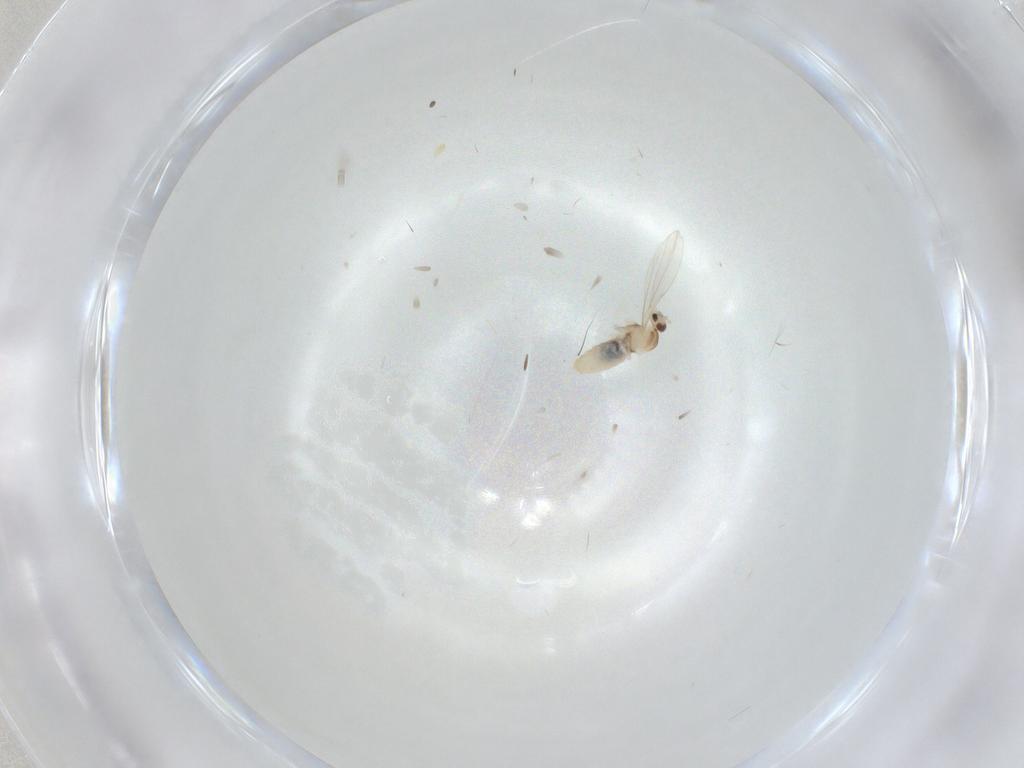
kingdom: Animalia
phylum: Arthropoda
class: Insecta
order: Diptera
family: Cecidomyiidae
